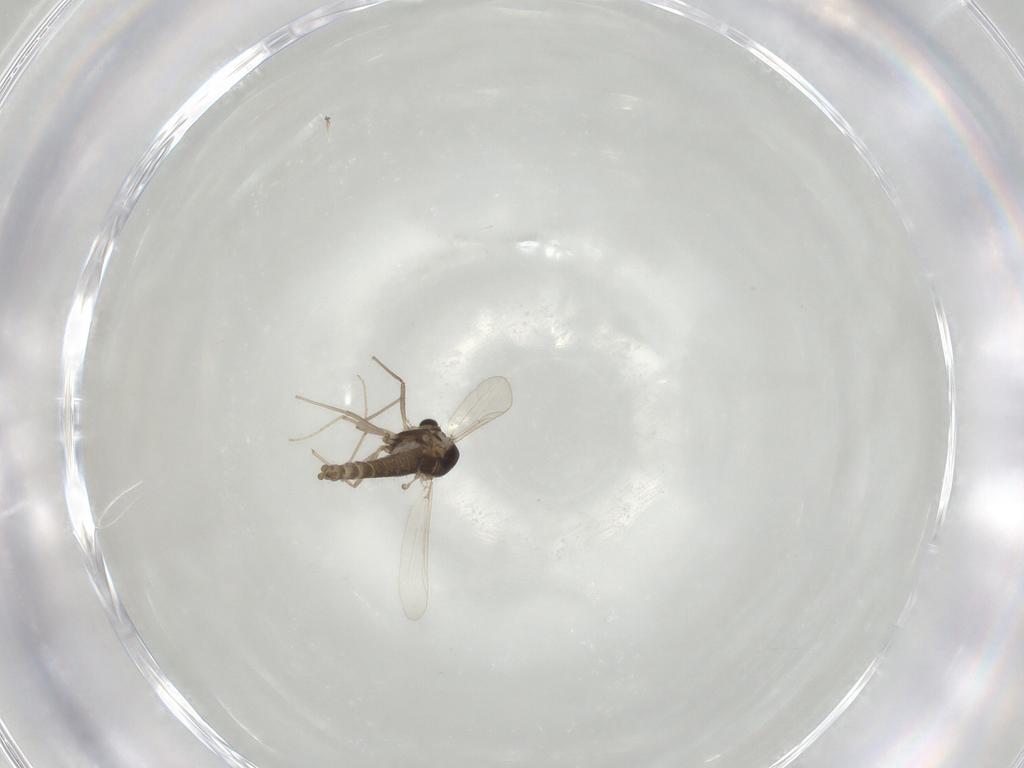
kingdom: Animalia
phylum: Arthropoda
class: Insecta
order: Diptera
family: Chironomidae
